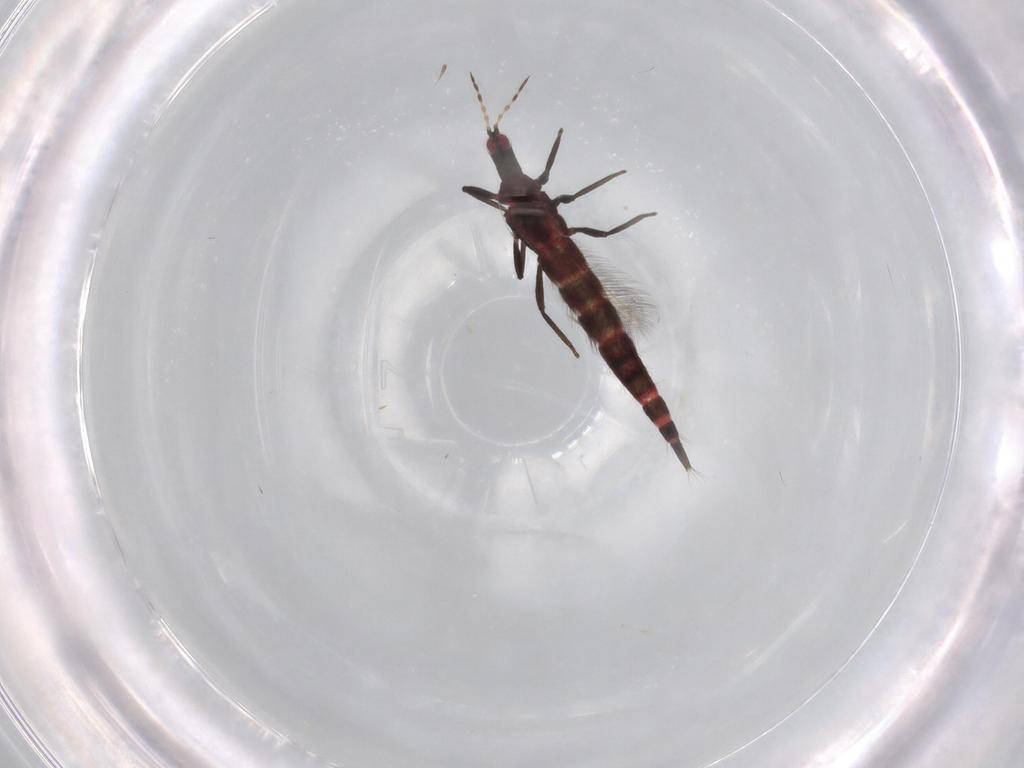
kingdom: Animalia
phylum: Arthropoda
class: Insecta
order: Thysanoptera
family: Phlaeothripidae
